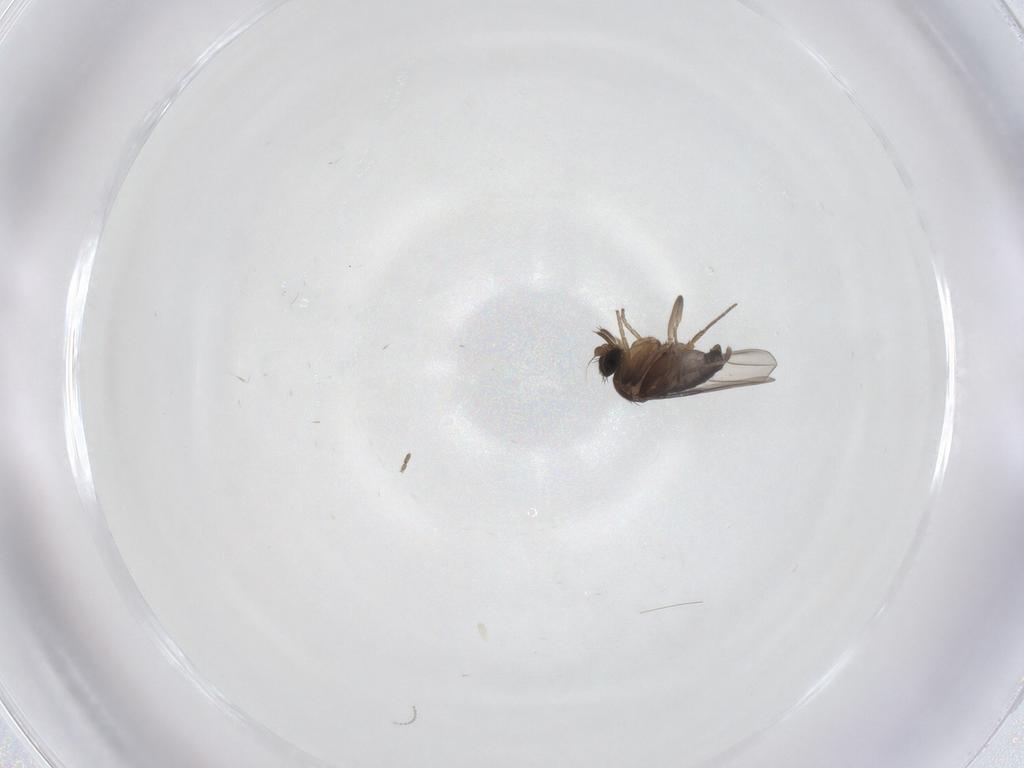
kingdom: Animalia
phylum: Arthropoda
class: Insecta
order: Diptera
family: Phoridae
